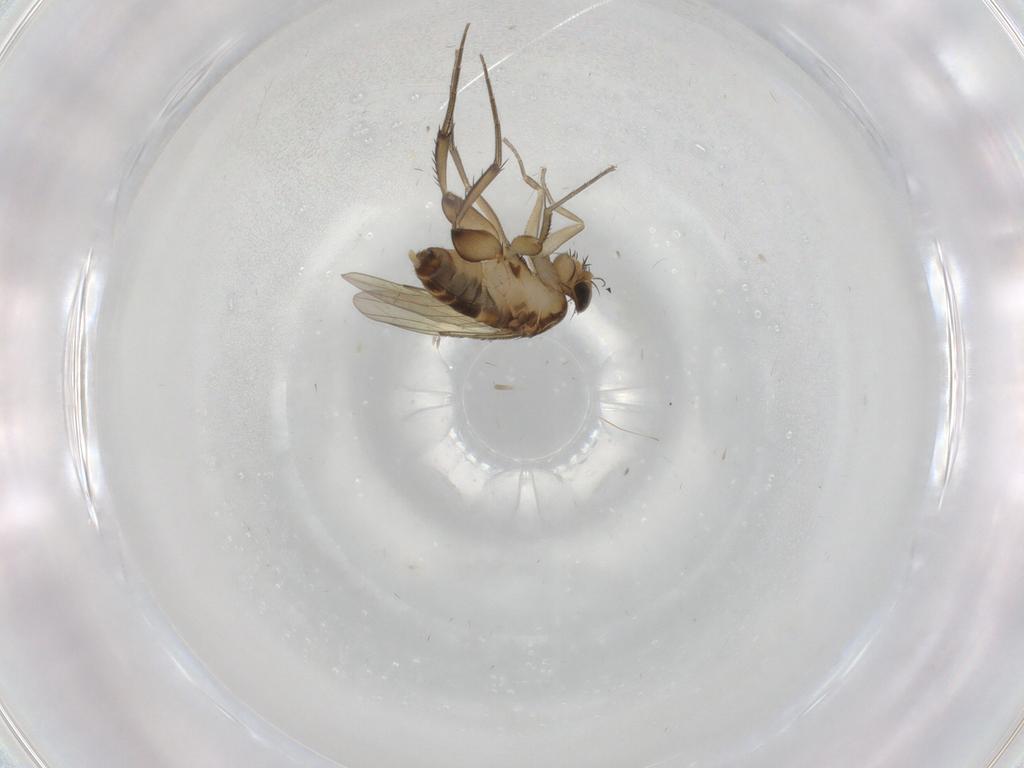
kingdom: Animalia
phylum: Arthropoda
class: Insecta
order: Diptera
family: Phoridae
